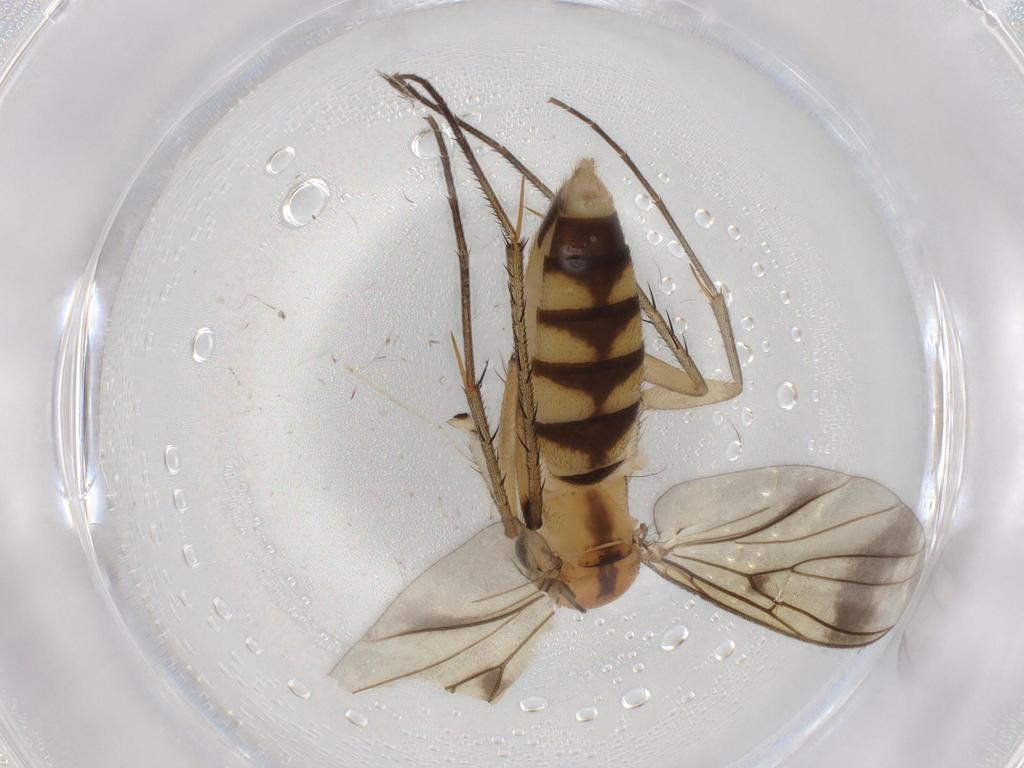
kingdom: Animalia
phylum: Arthropoda
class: Insecta
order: Diptera
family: Mycetophilidae
